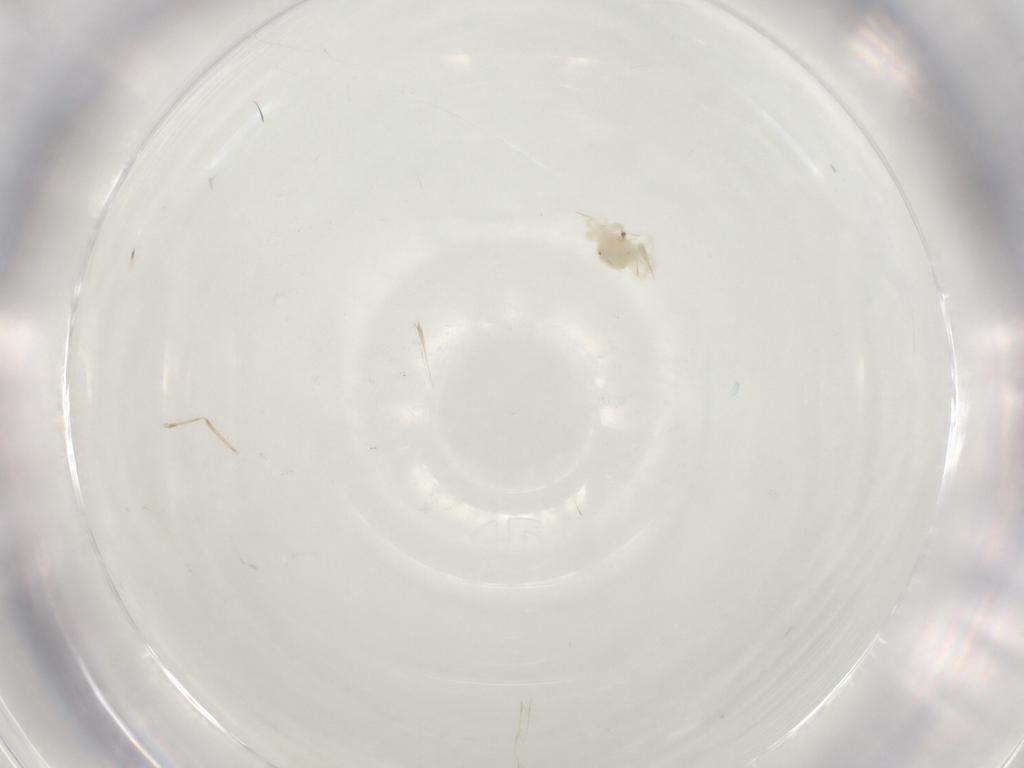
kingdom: Animalia
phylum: Arthropoda
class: Arachnida
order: Trombidiformes
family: Anystidae
